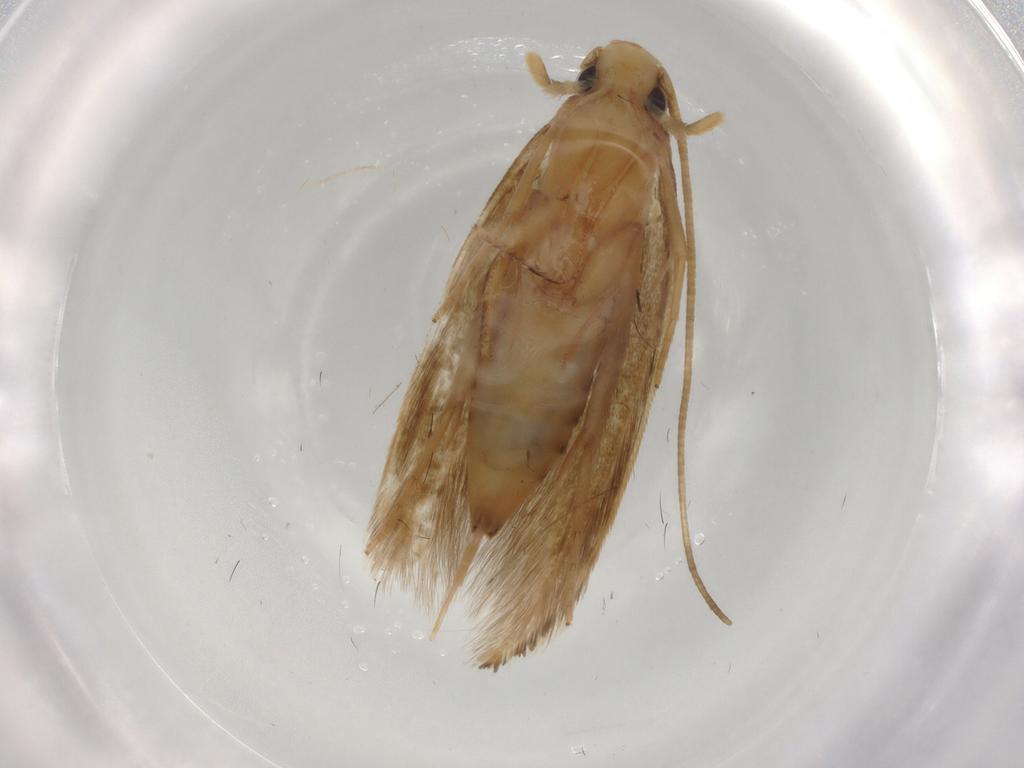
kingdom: Animalia
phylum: Arthropoda
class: Insecta
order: Lepidoptera
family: Tineidae
